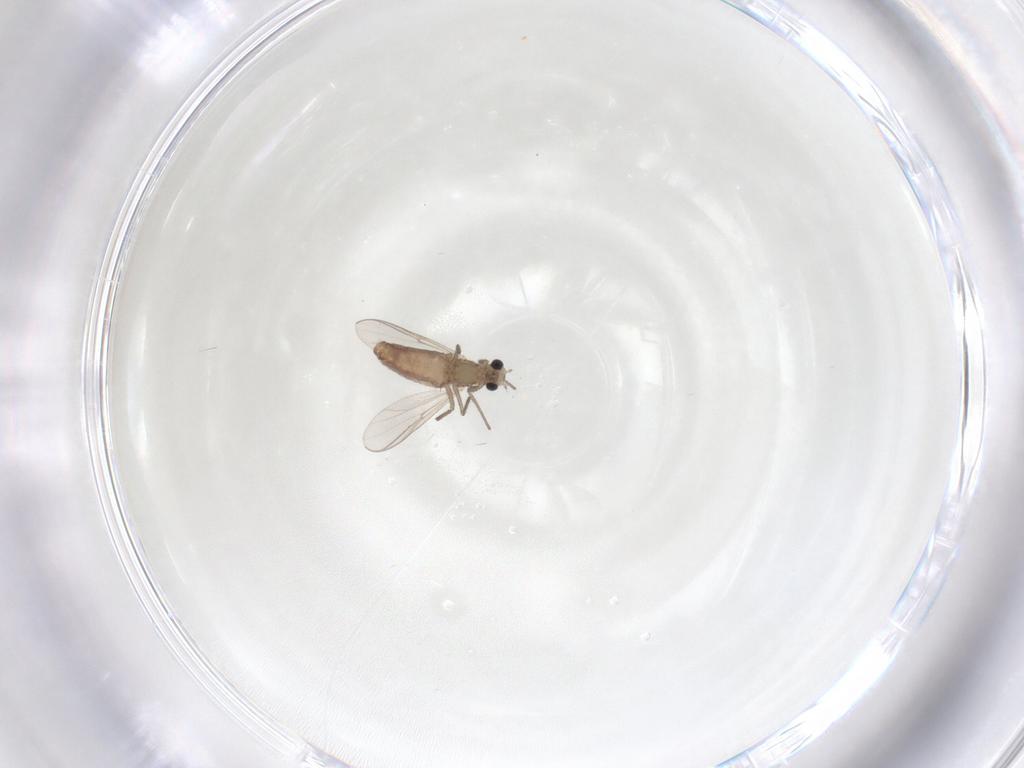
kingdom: Animalia
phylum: Arthropoda
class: Insecta
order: Diptera
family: Chironomidae
